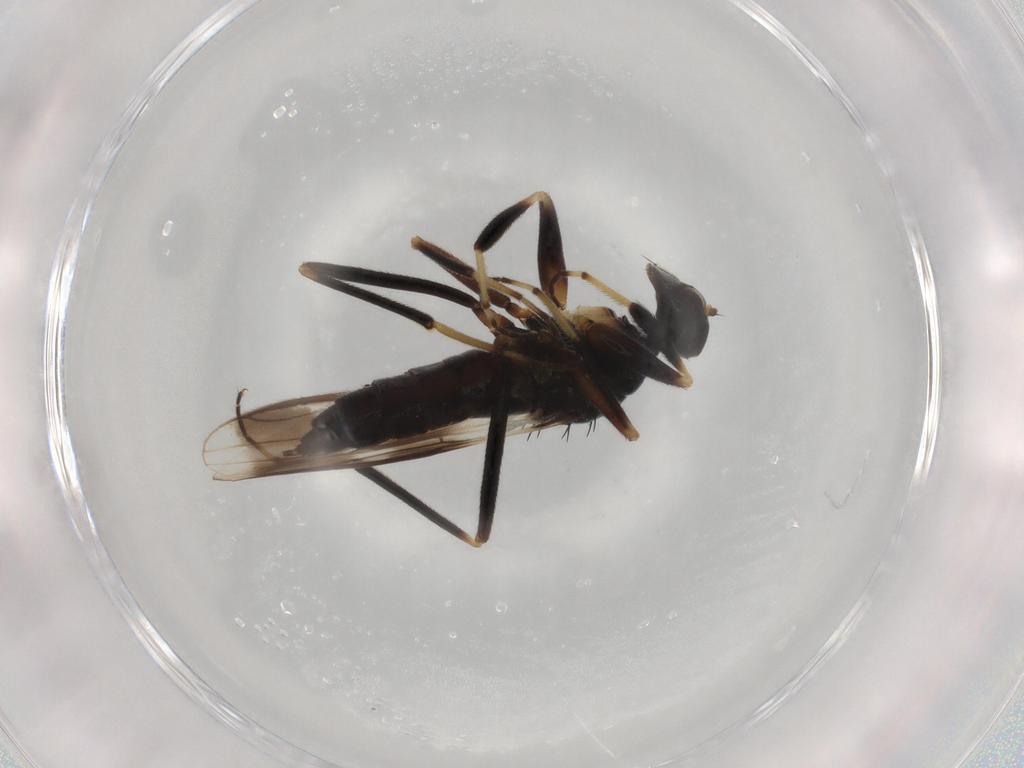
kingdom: Animalia
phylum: Arthropoda
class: Insecta
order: Diptera
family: Hybotidae
